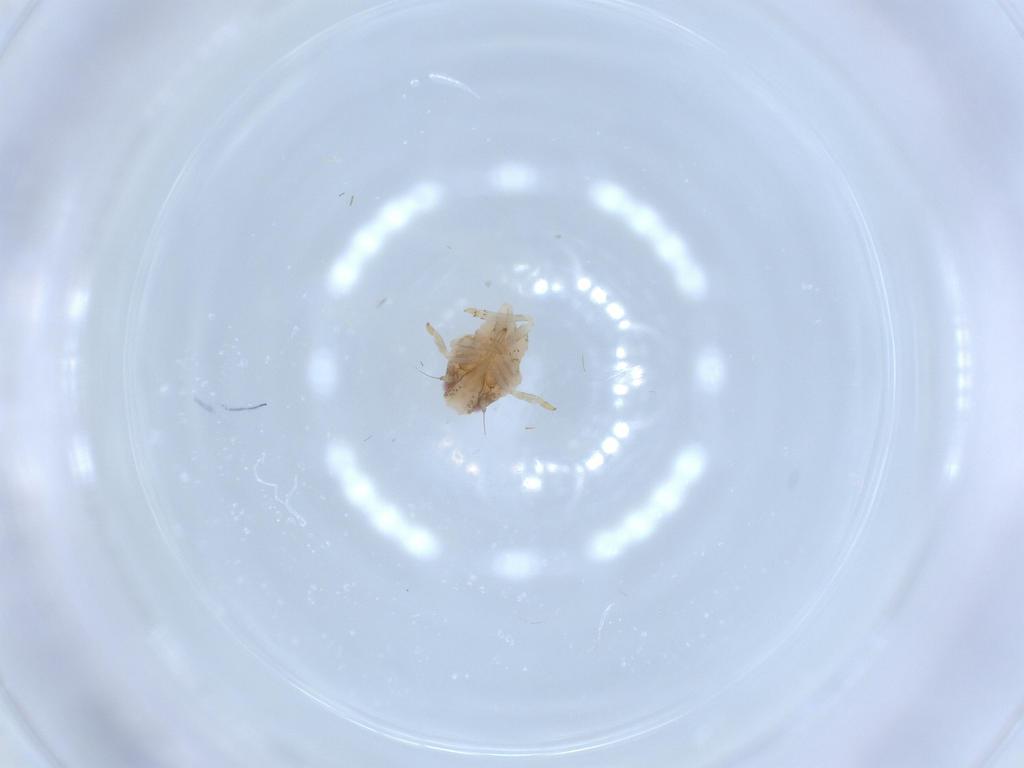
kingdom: Animalia
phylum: Arthropoda
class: Insecta
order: Hemiptera
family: Acanaloniidae
